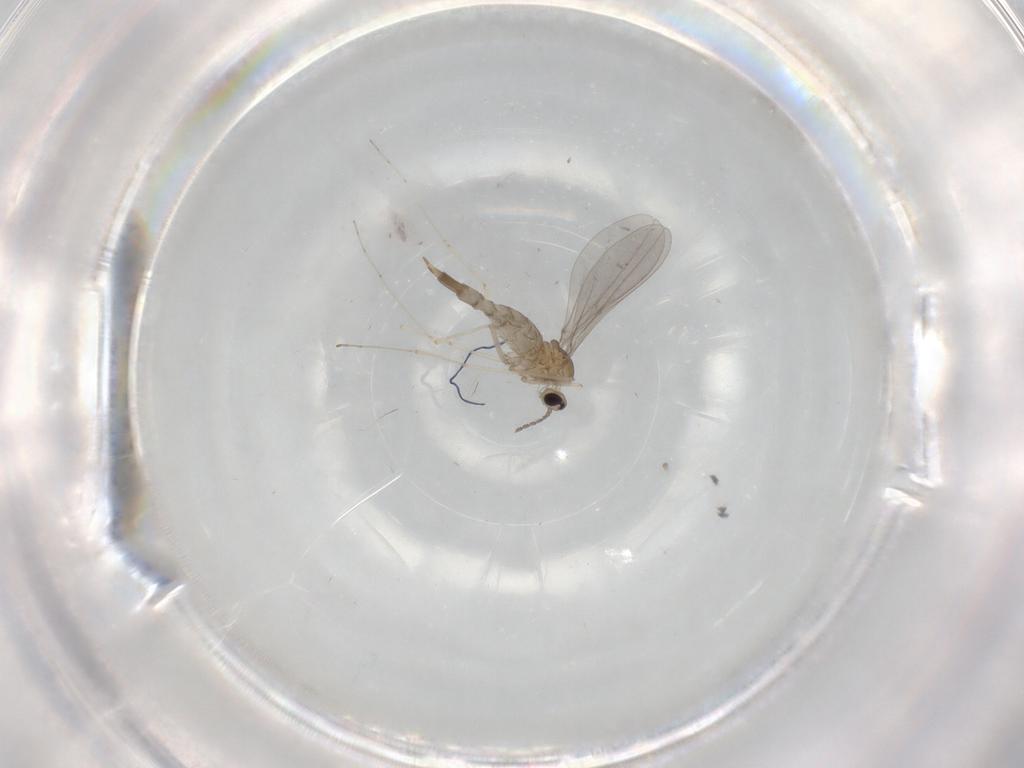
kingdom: Animalia
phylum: Arthropoda
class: Insecta
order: Diptera
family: Cecidomyiidae
